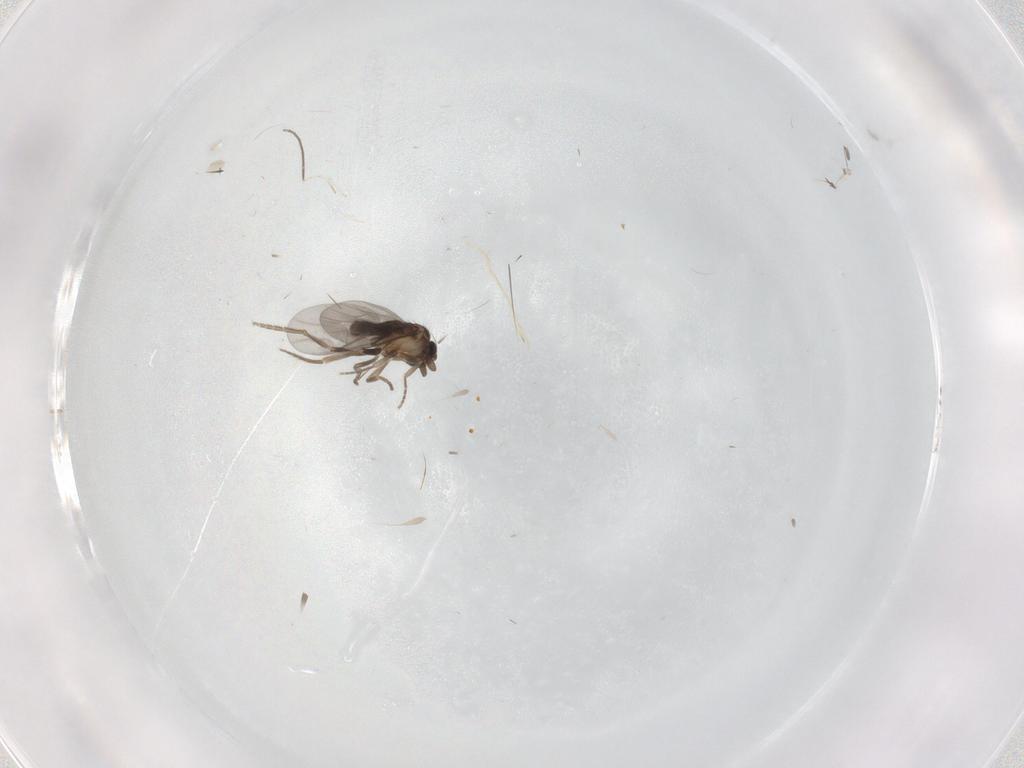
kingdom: Animalia
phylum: Arthropoda
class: Insecta
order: Diptera
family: Chironomidae
